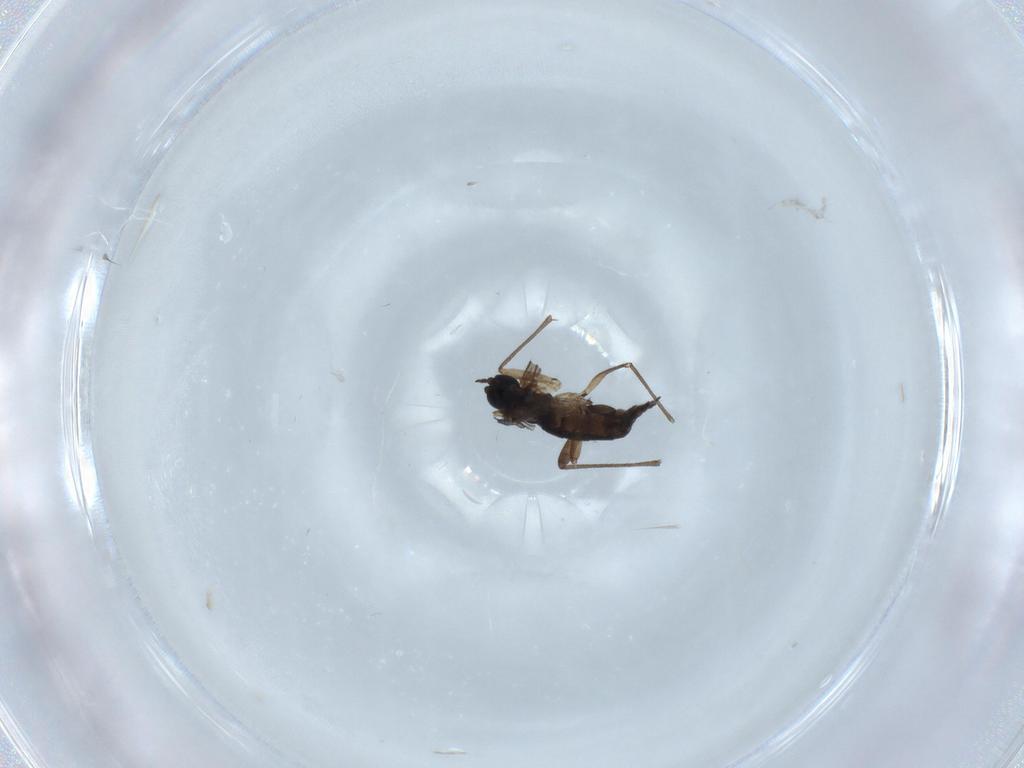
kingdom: Animalia
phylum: Arthropoda
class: Insecta
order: Diptera
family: Sciaridae
